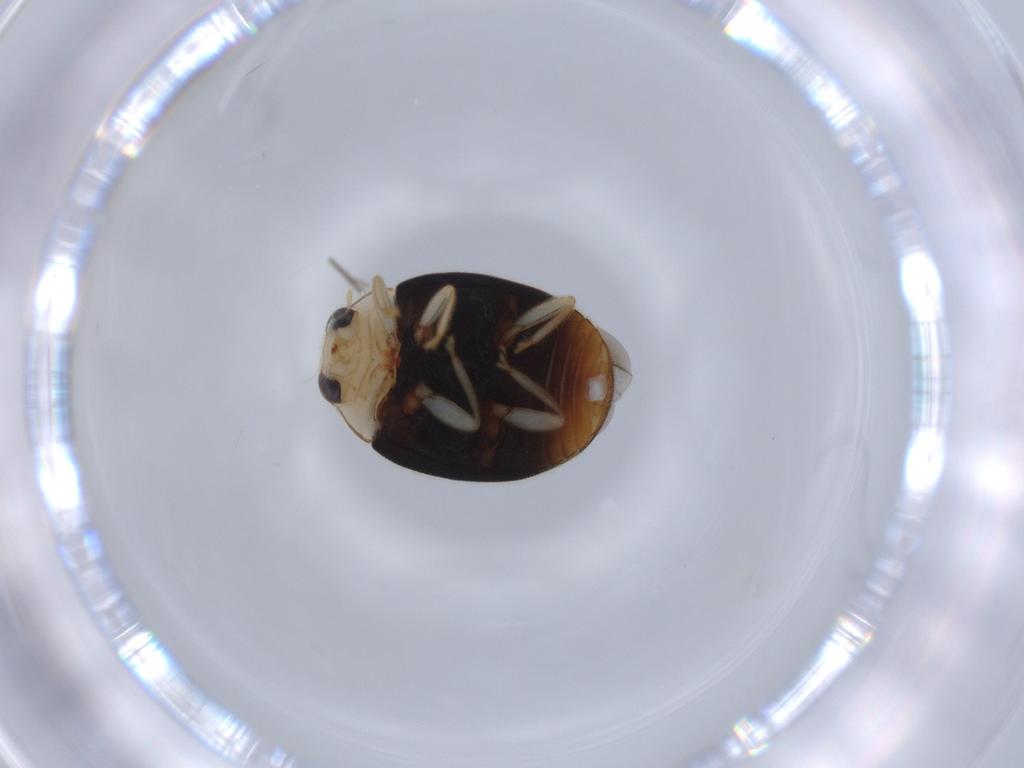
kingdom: Animalia
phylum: Arthropoda
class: Insecta
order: Coleoptera
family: Coccinellidae
